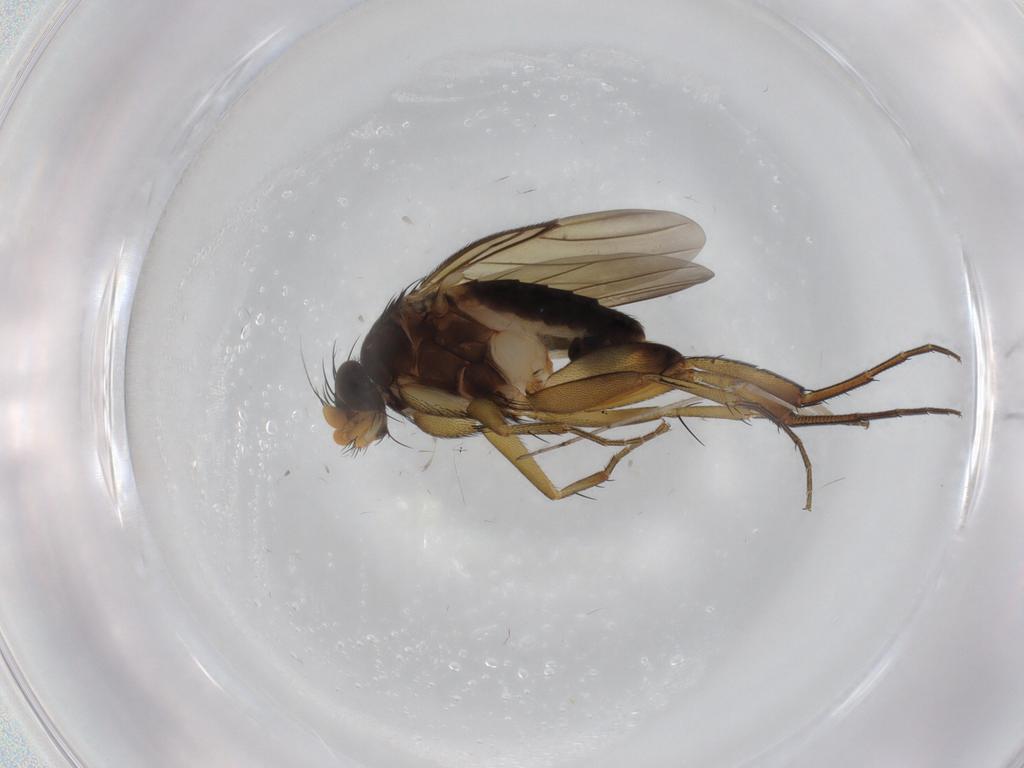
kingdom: Animalia
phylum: Arthropoda
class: Insecta
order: Diptera
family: Phoridae
